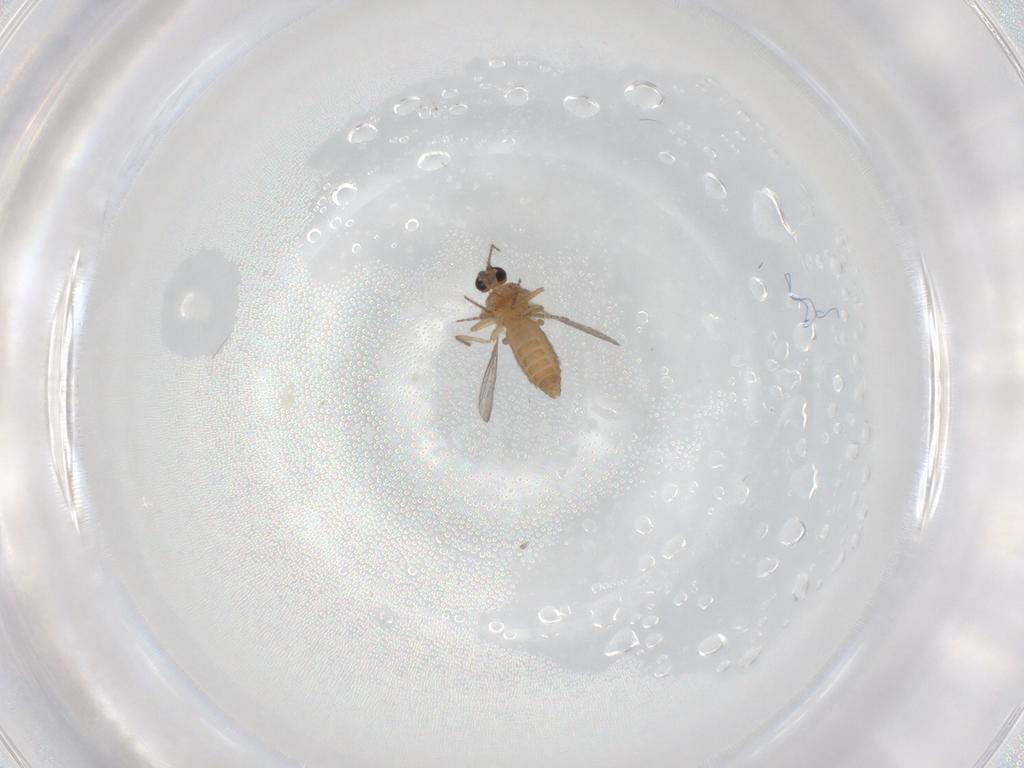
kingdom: Animalia
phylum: Arthropoda
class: Insecta
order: Diptera
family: Ceratopogonidae
